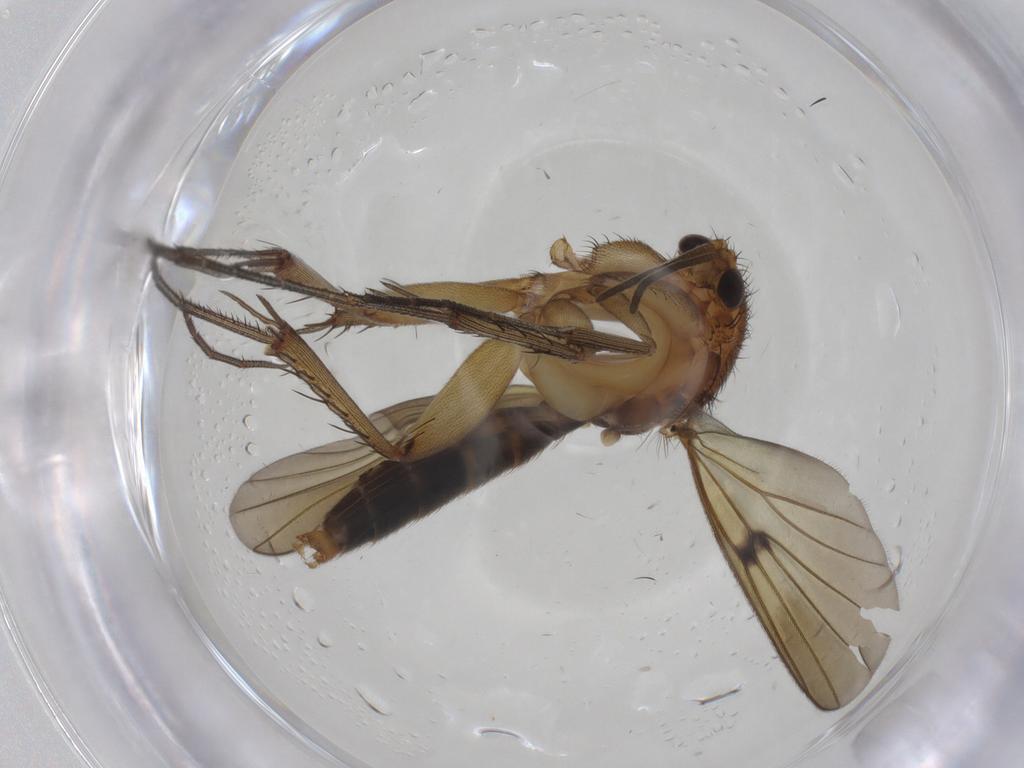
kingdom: Animalia
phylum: Arthropoda
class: Insecta
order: Diptera
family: Mycetophilidae
